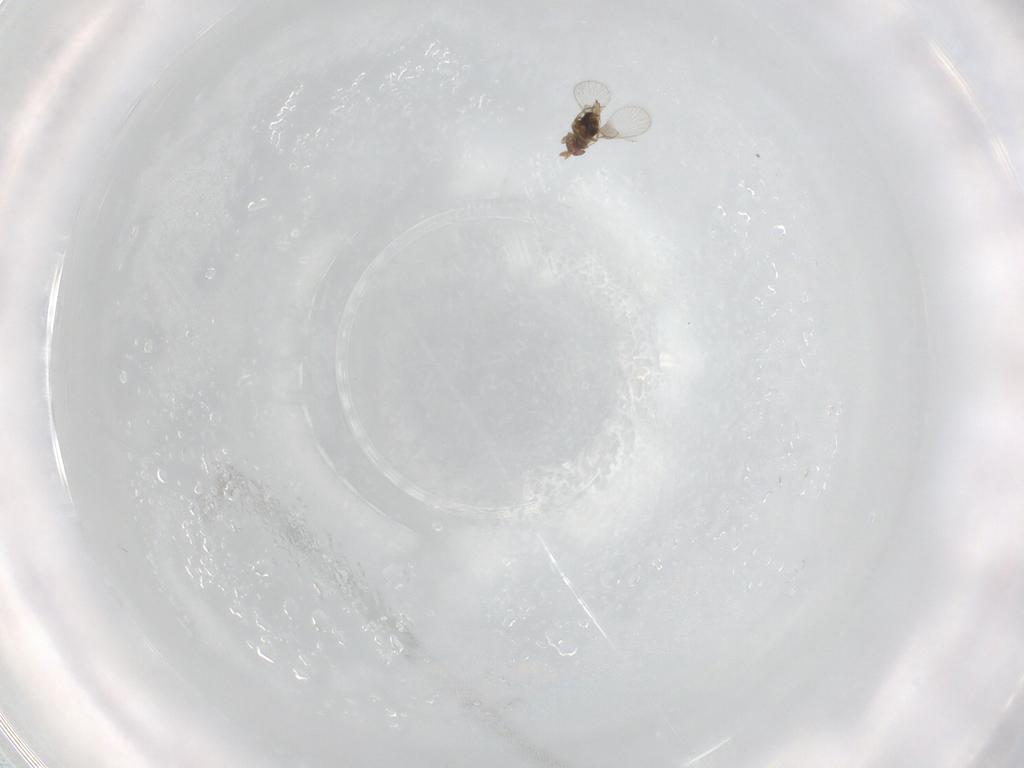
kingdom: Animalia
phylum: Arthropoda
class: Insecta
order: Hymenoptera
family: Trichogrammatidae
